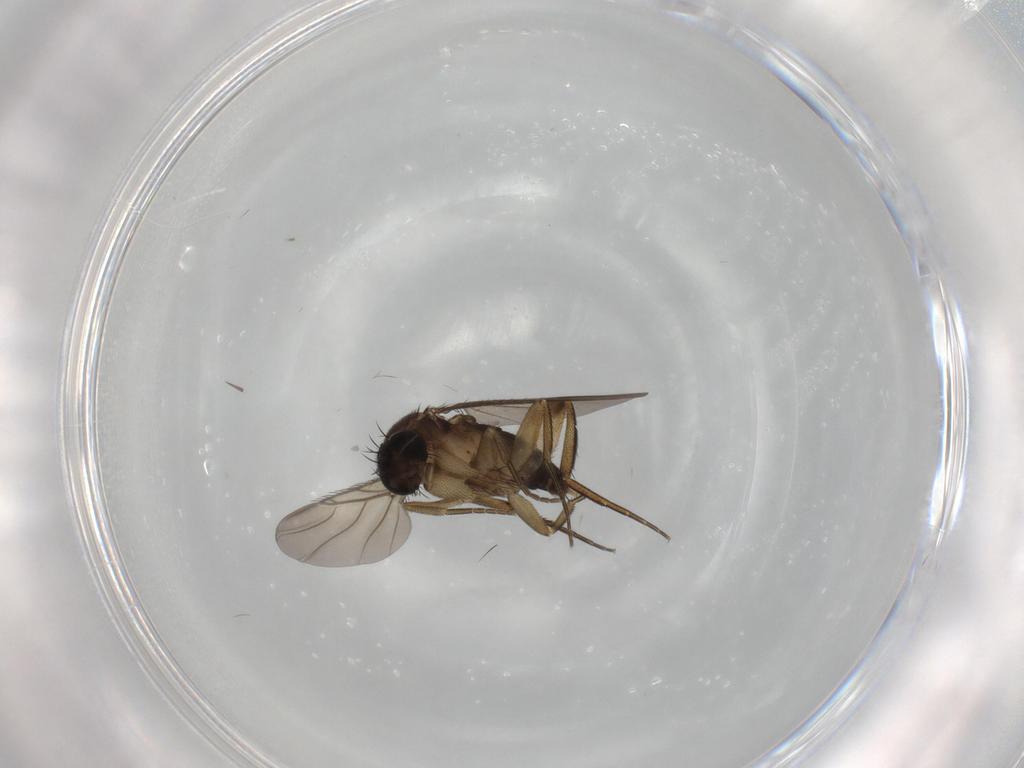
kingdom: Animalia
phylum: Arthropoda
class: Insecta
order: Diptera
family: Phoridae
